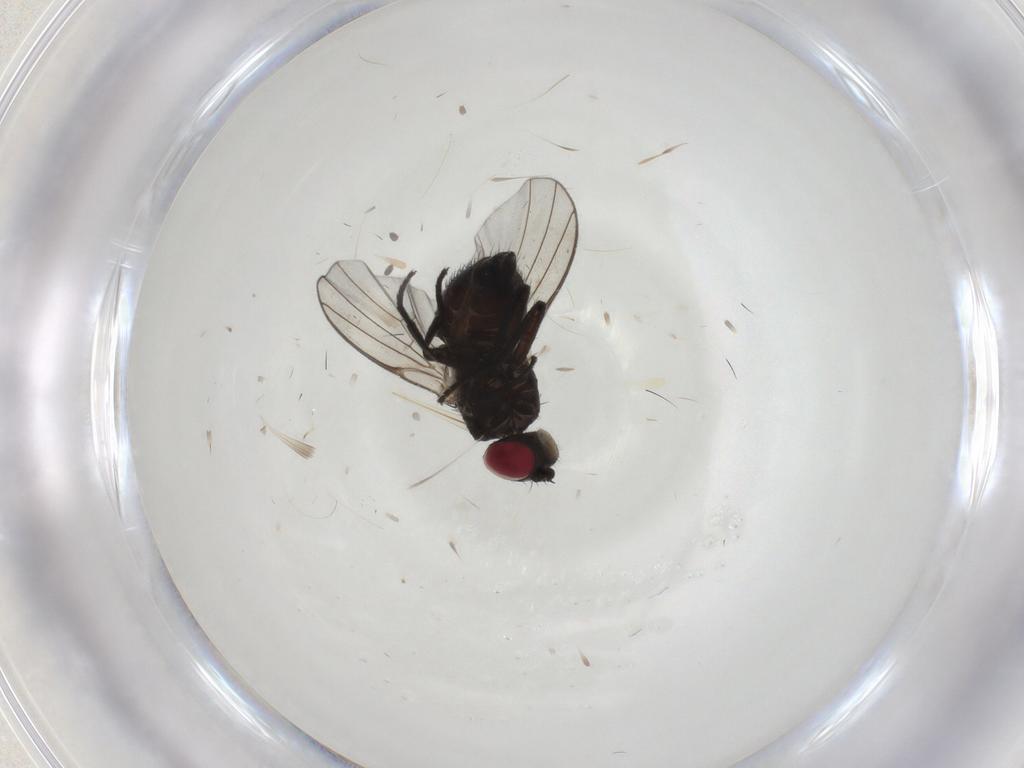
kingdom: Animalia
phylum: Arthropoda
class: Insecta
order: Diptera
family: Agromyzidae
